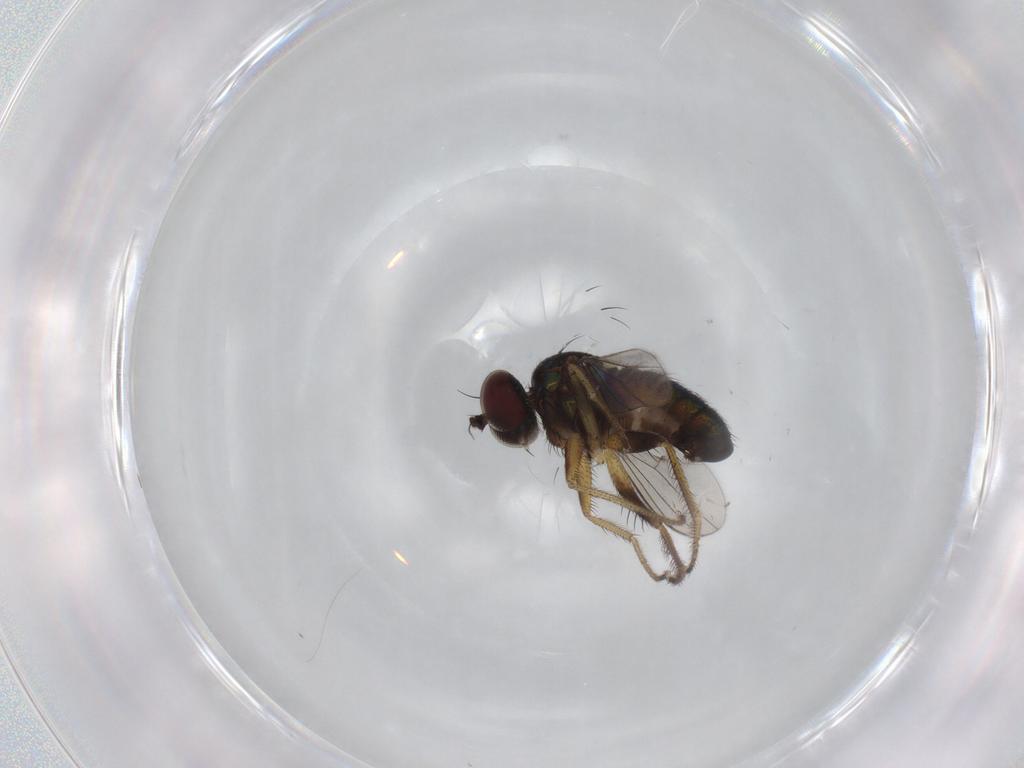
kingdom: Animalia
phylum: Arthropoda
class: Insecta
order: Diptera
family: Dolichopodidae
